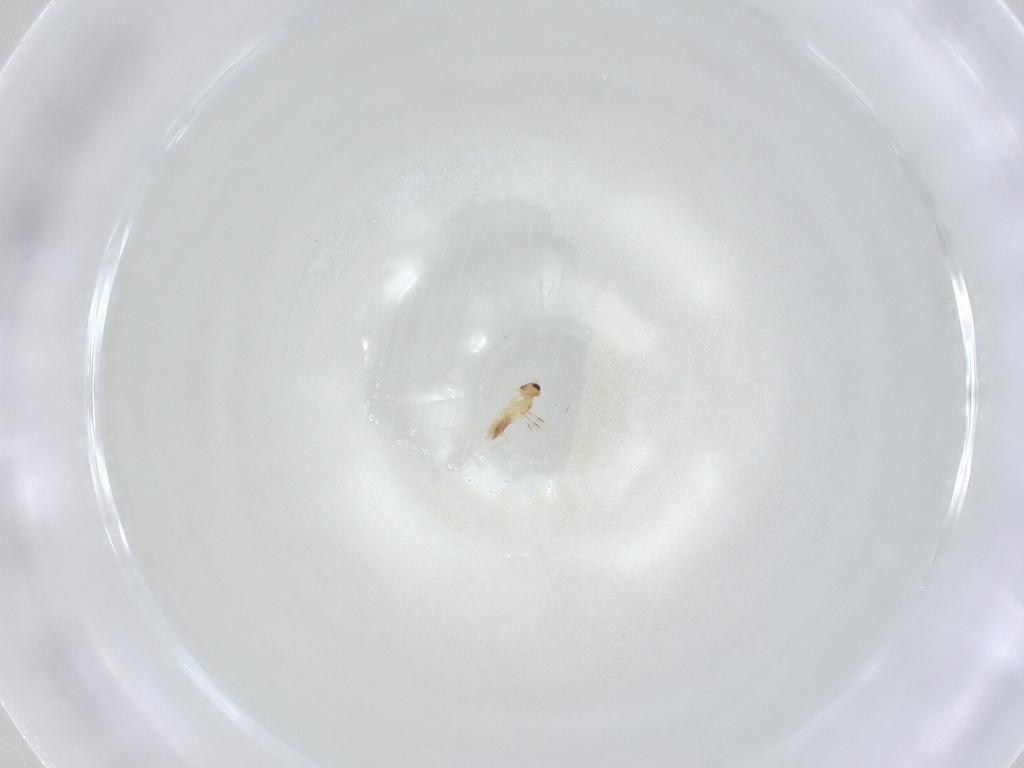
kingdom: Animalia
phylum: Arthropoda
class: Insecta
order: Hymenoptera
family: Mymaridae
